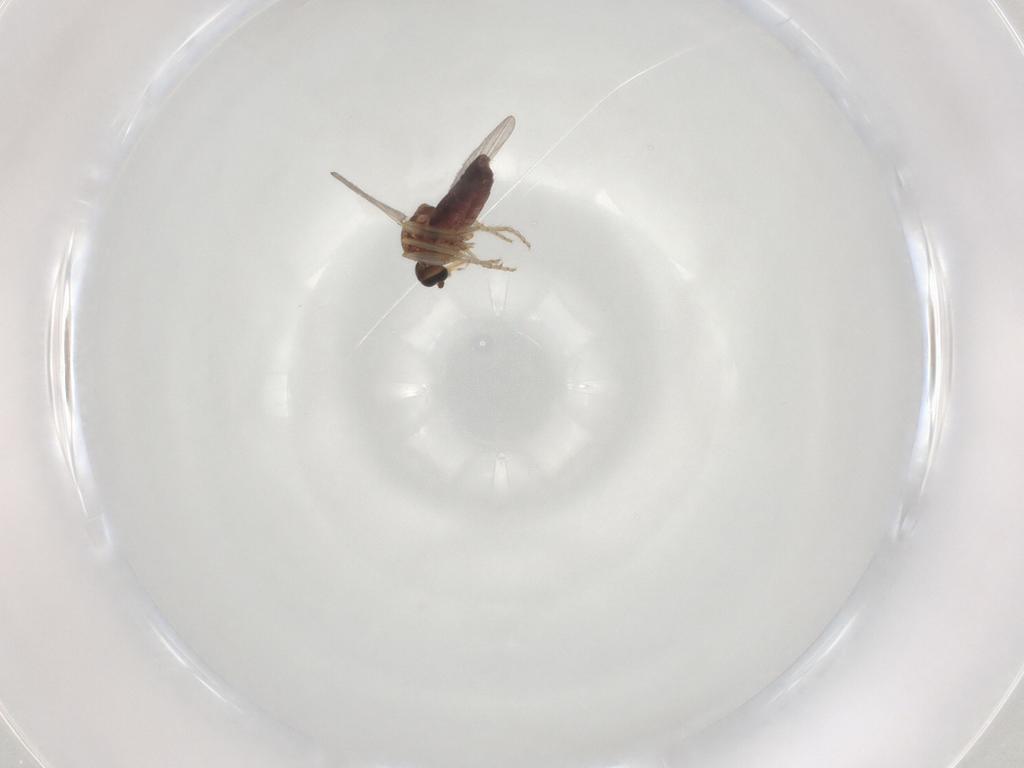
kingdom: Animalia
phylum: Arthropoda
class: Insecta
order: Diptera
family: Ceratopogonidae
